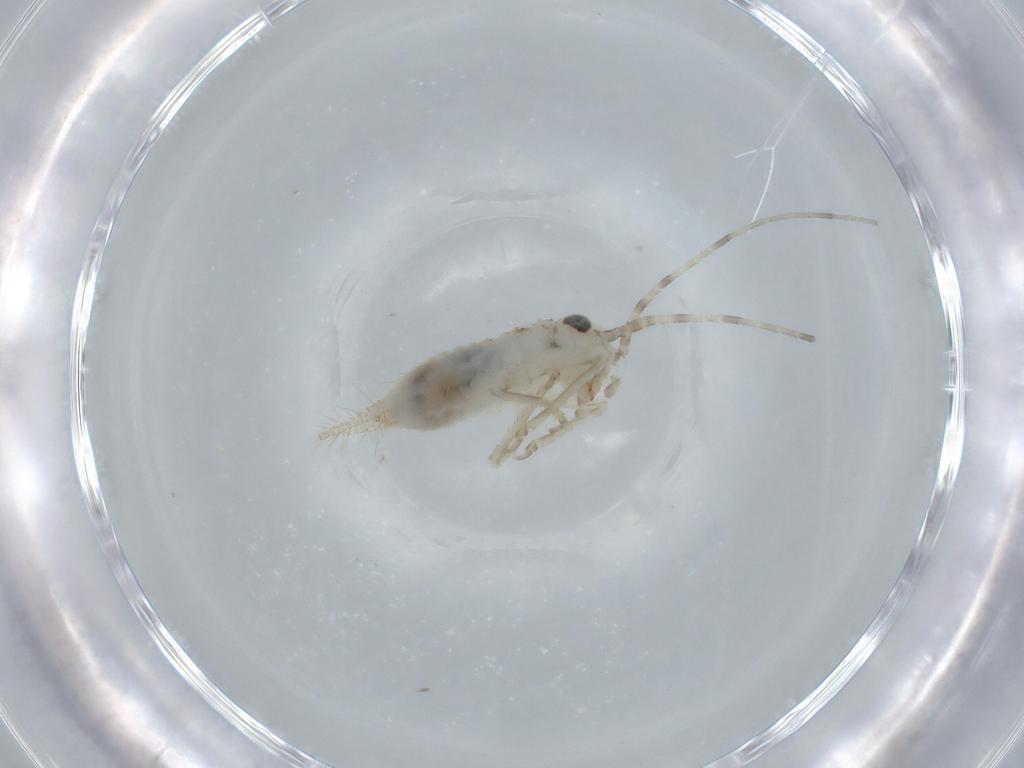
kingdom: Animalia
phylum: Arthropoda
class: Insecta
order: Orthoptera
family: Trigonidiidae
